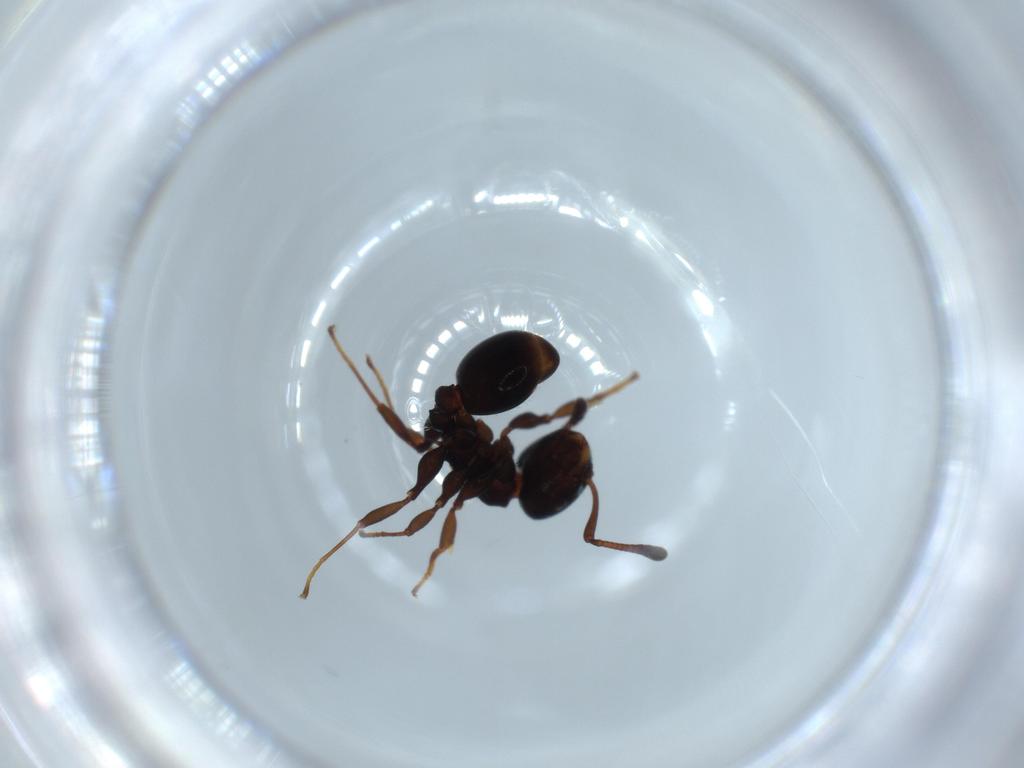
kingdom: Animalia
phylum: Arthropoda
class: Insecta
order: Hymenoptera
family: Formicidae
